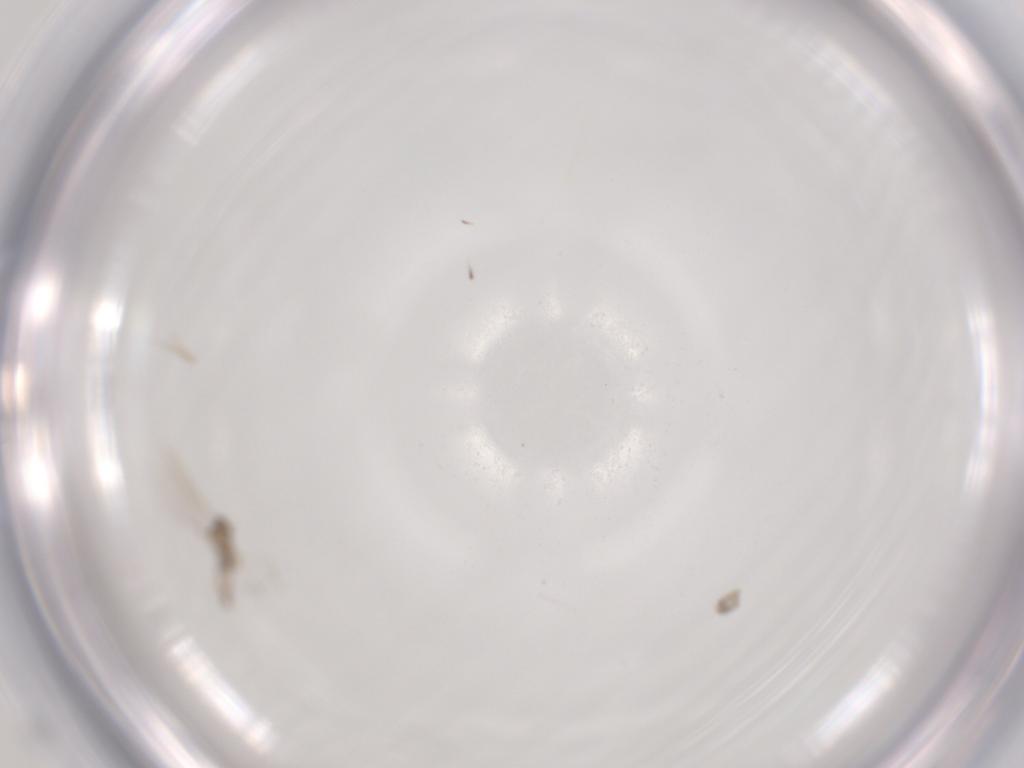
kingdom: Animalia
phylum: Arthropoda
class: Insecta
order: Diptera
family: Cecidomyiidae
